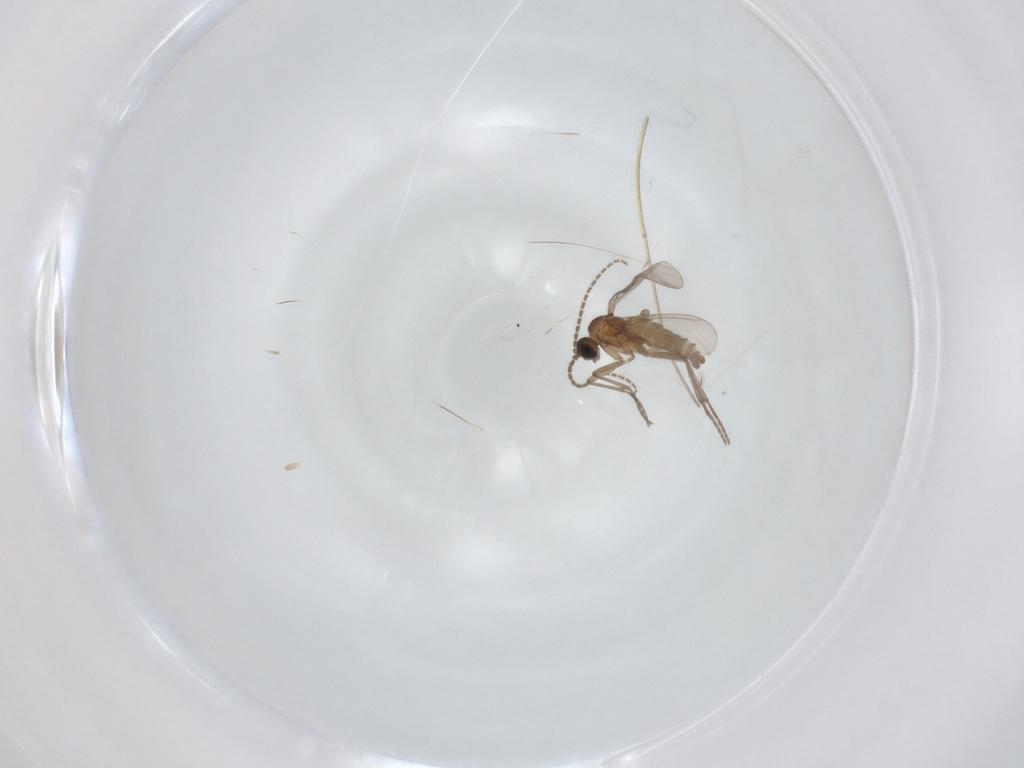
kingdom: Animalia
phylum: Arthropoda
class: Insecta
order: Diptera
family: Sciaridae
